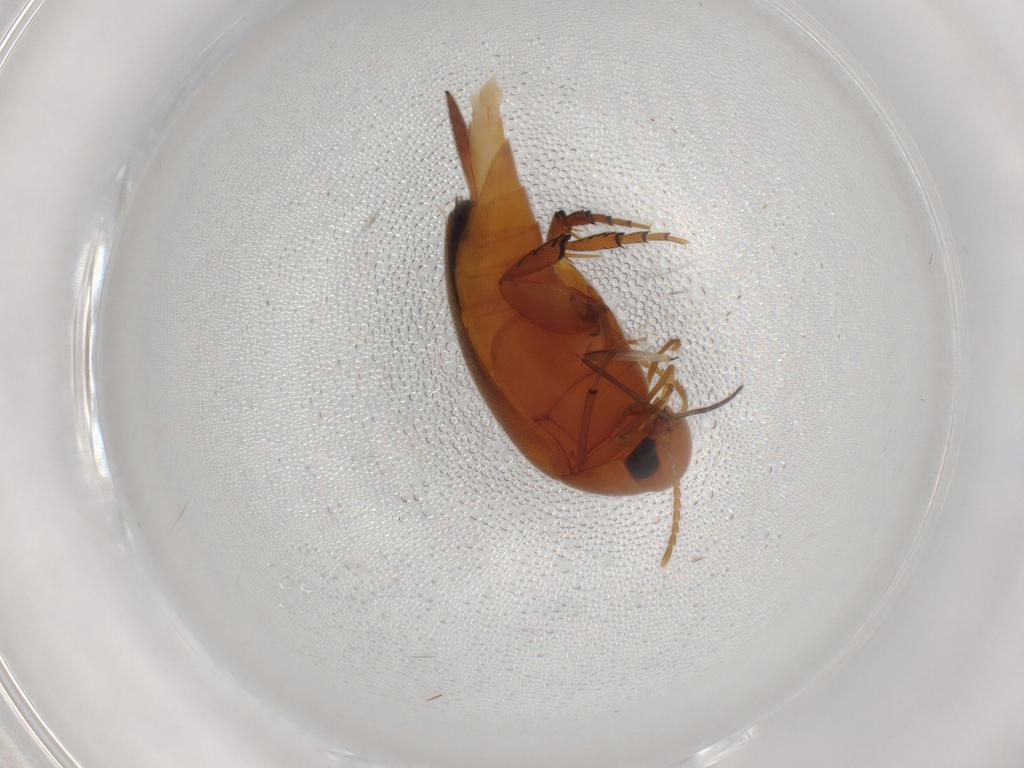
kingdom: Animalia
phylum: Arthropoda
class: Insecta
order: Coleoptera
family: Mordellidae
